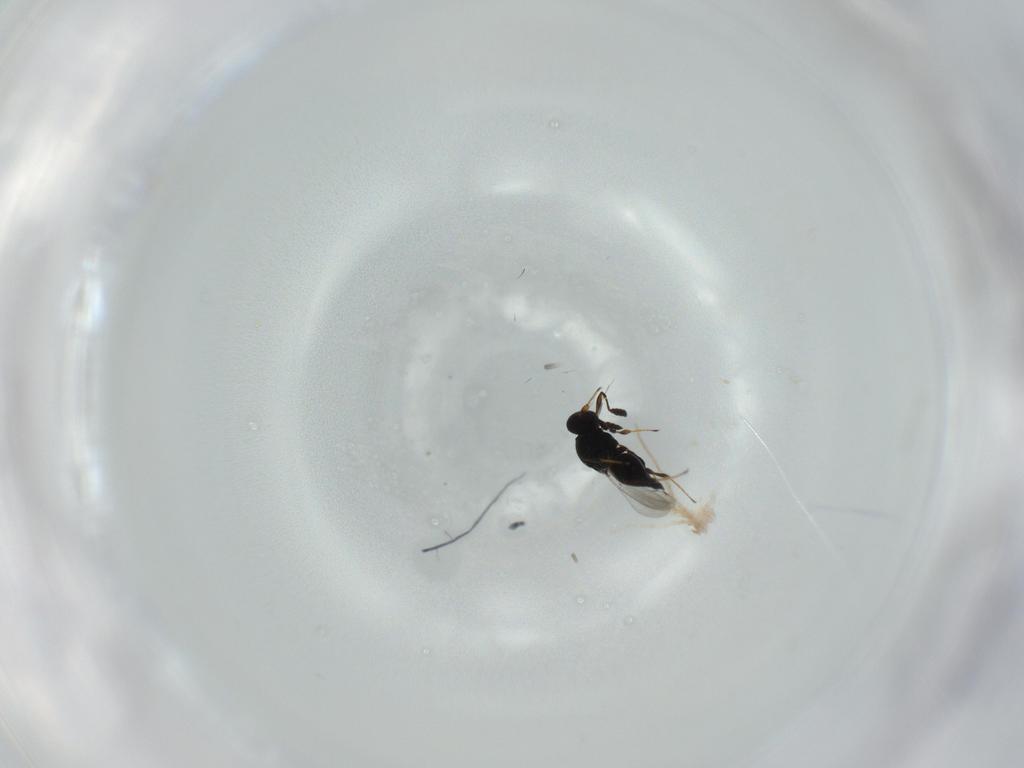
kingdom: Animalia
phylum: Arthropoda
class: Insecta
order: Hymenoptera
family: Platygastridae
